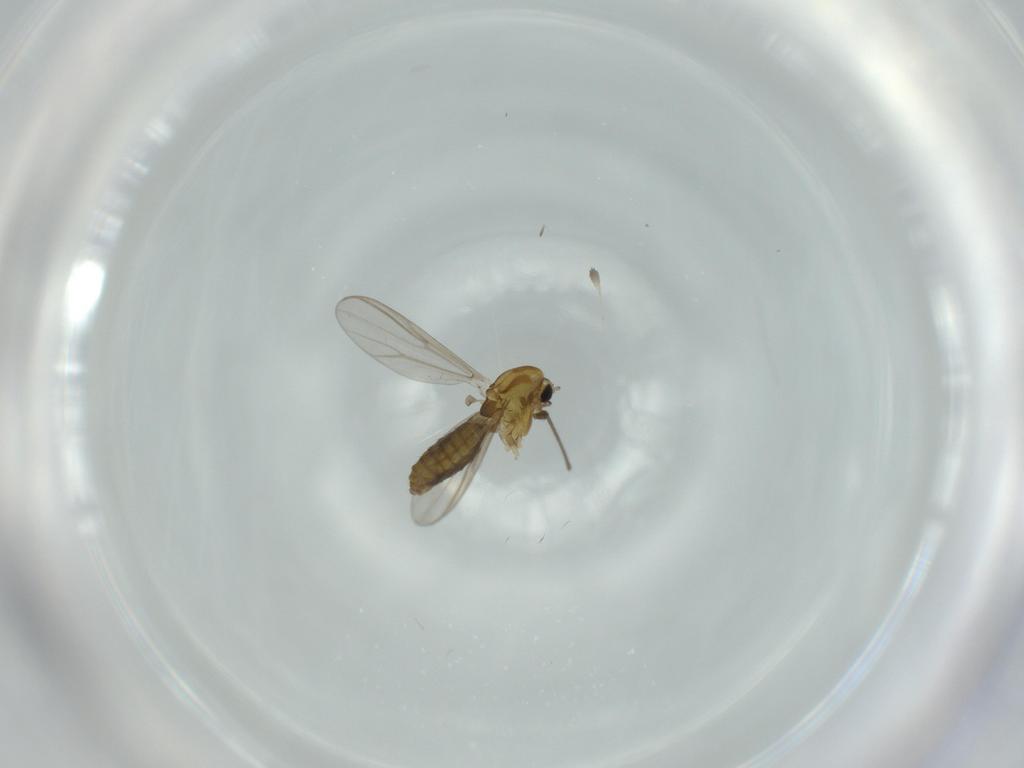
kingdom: Animalia
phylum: Arthropoda
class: Insecta
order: Diptera
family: Chironomidae
